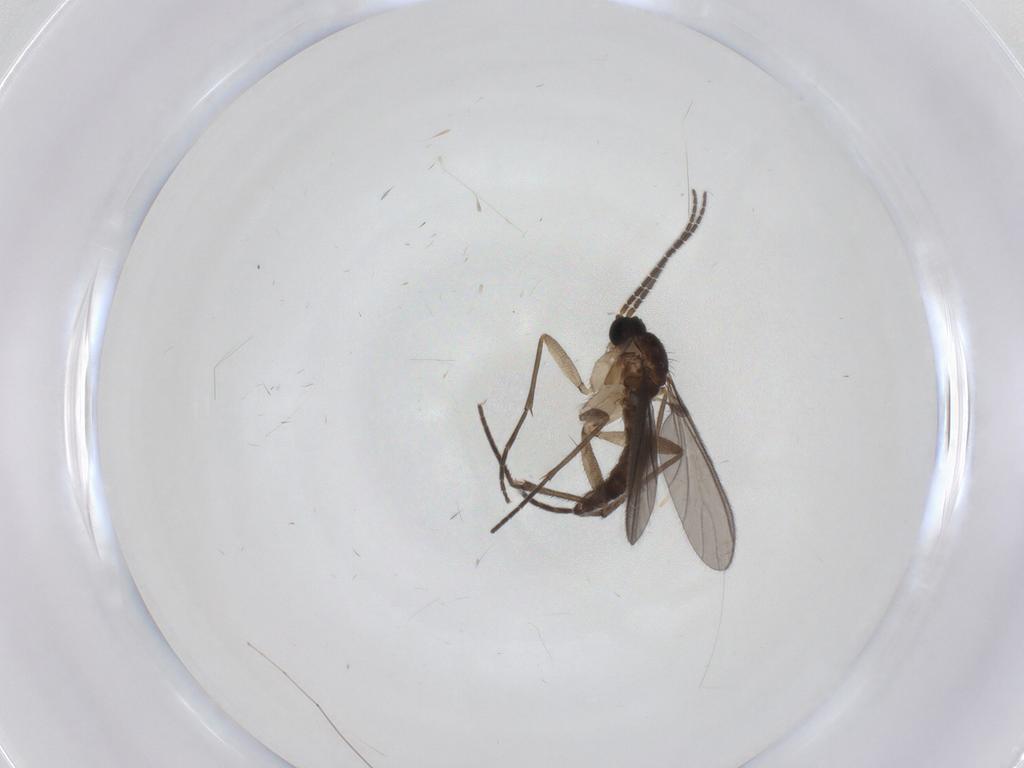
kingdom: Animalia
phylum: Arthropoda
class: Insecta
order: Diptera
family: Sciaridae
